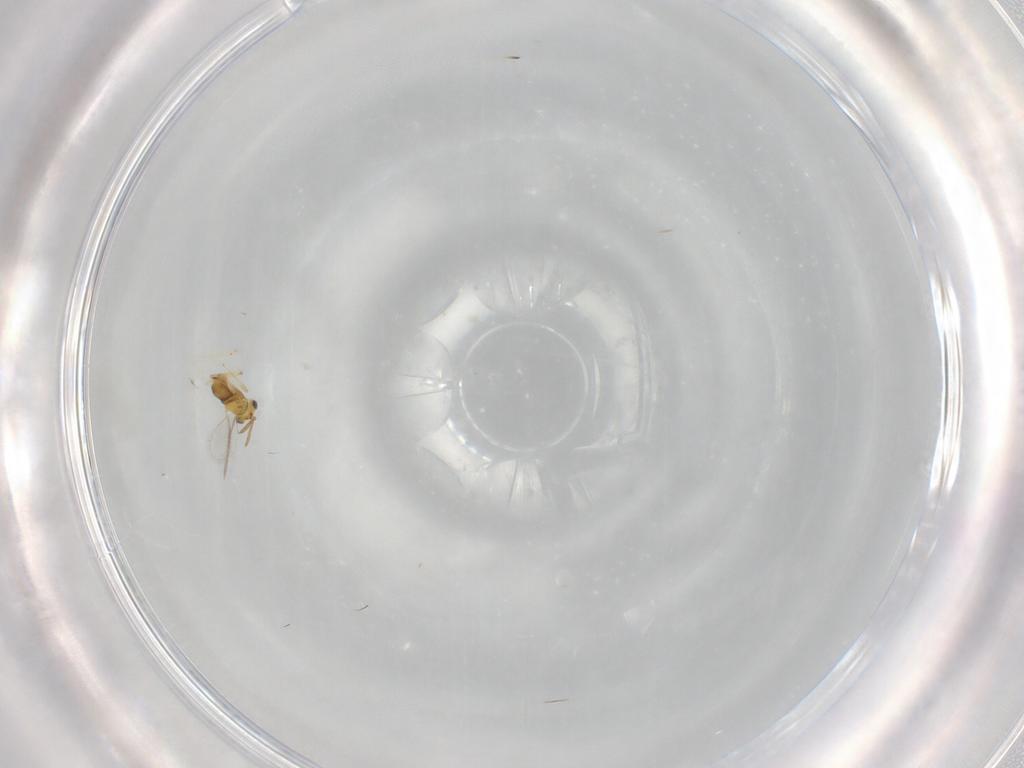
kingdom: Animalia
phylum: Arthropoda
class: Insecta
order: Hymenoptera
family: Aphelinidae
